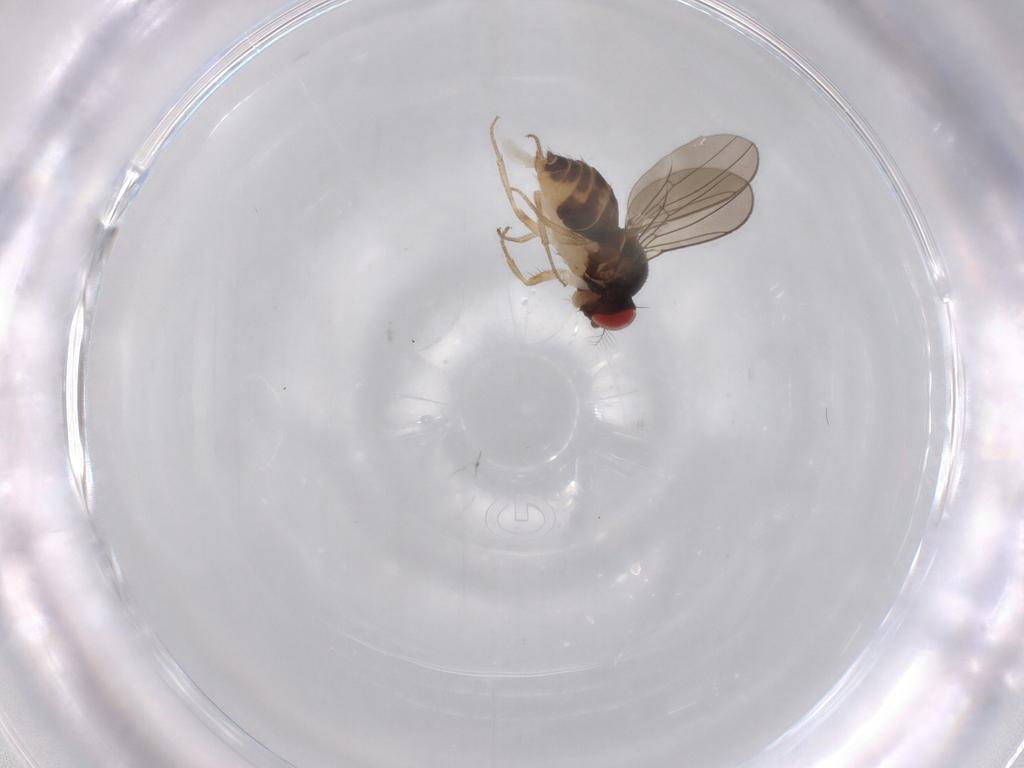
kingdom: Animalia
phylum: Arthropoda
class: Insecta
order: Diptera
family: Drosophilidae
